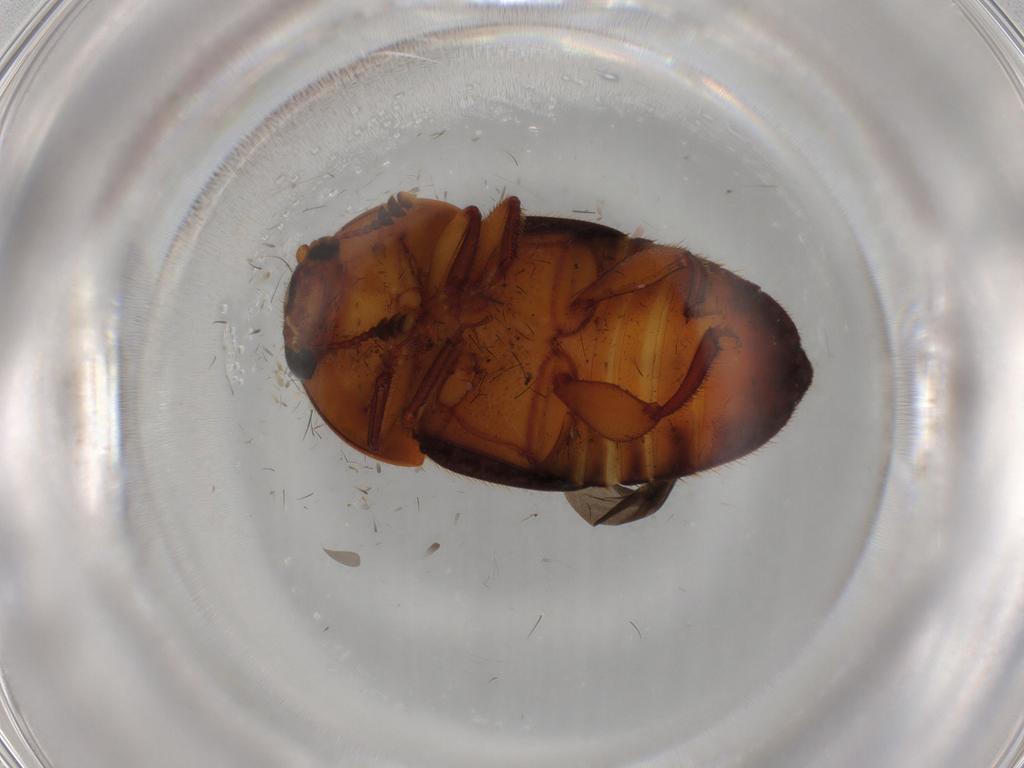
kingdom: Animalia
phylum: Arthropoda
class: Insecta
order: Coleoptera
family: Nitidulidae
